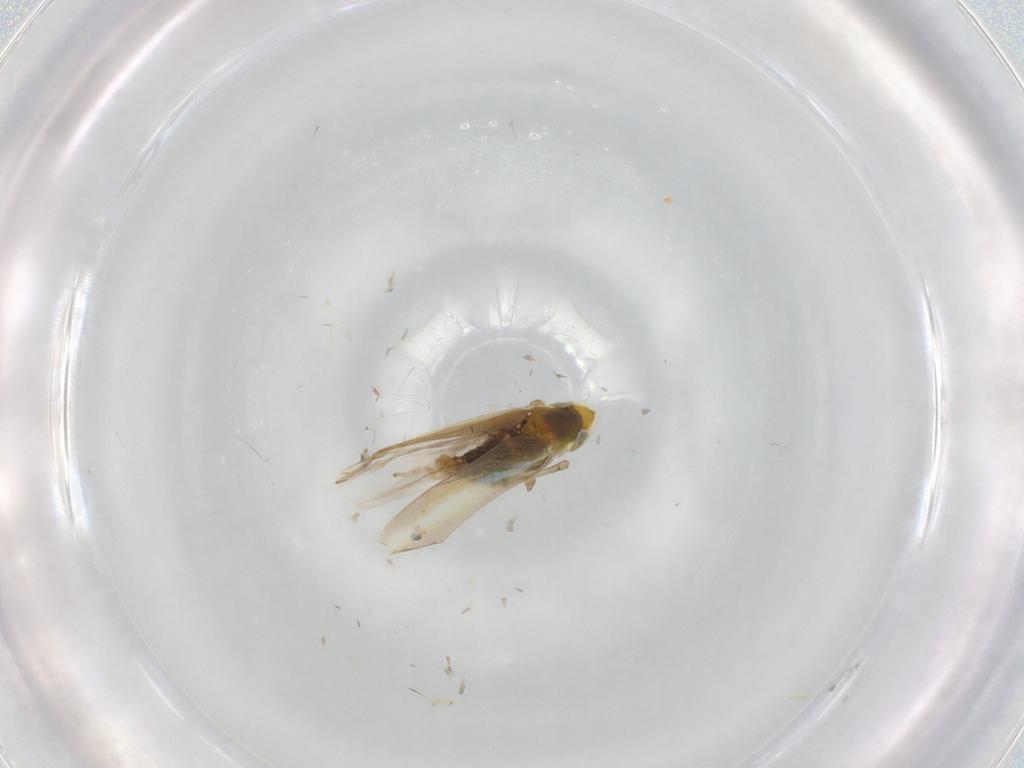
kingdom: Animalia
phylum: Arthropoda
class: Insecta
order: Hemiptera
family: Cicadellidae
